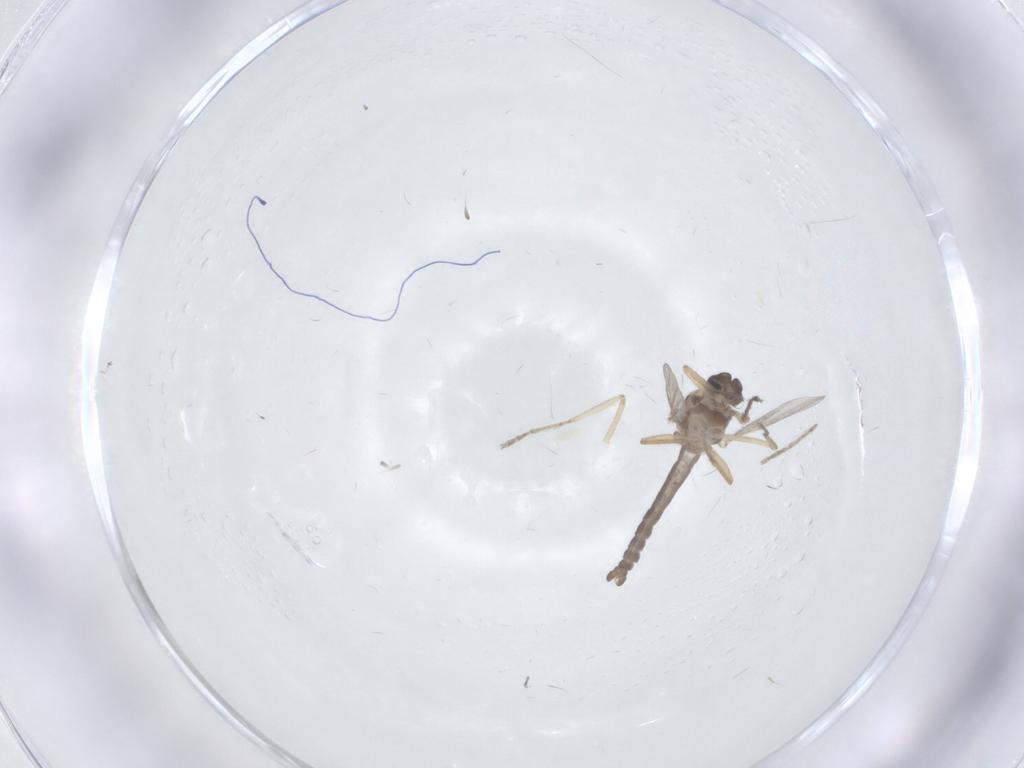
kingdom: Animalia
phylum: Arthropoda
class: Insecta
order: Diptera
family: Ceratopogonidae
